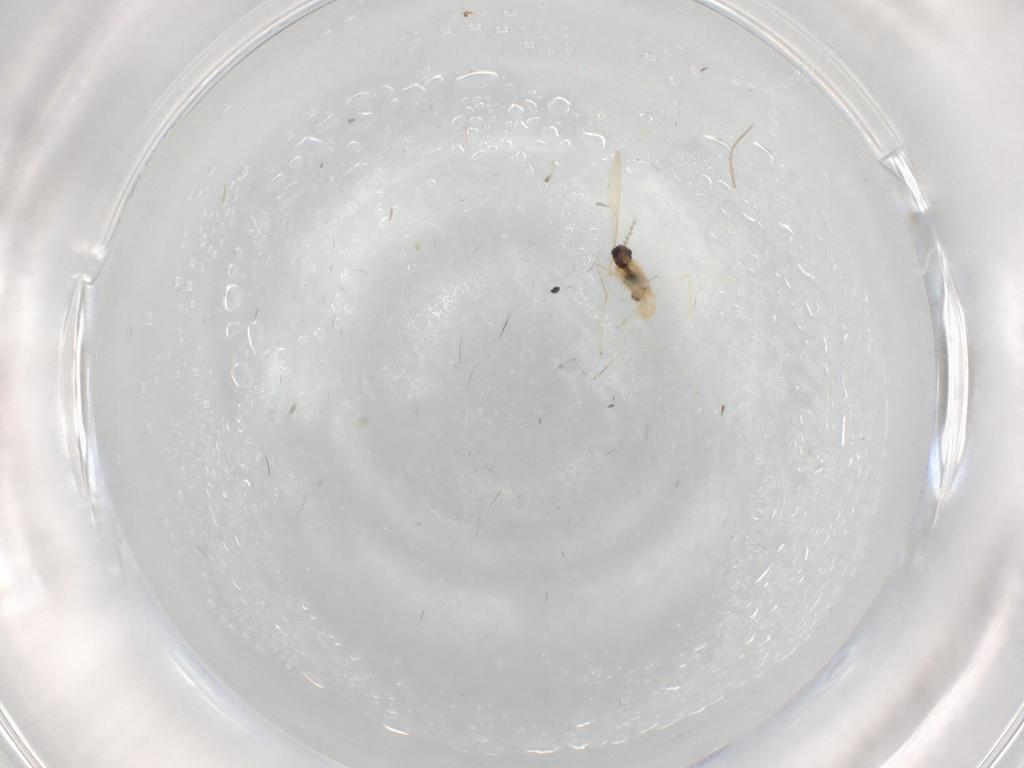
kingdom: Animalia
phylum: Arthropoda
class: Insecta
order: Diptera
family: Cecidomyiidae
